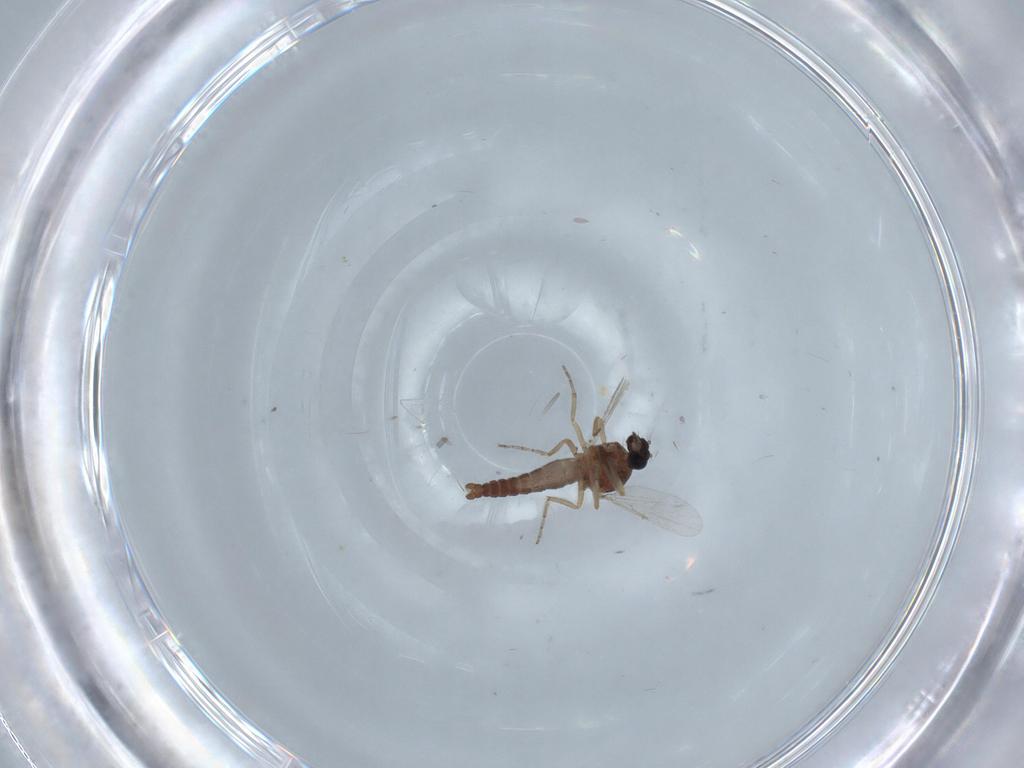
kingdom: Animalia
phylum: Arthropoda
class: Insecta
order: Diptera
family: Ceratopogonidae
